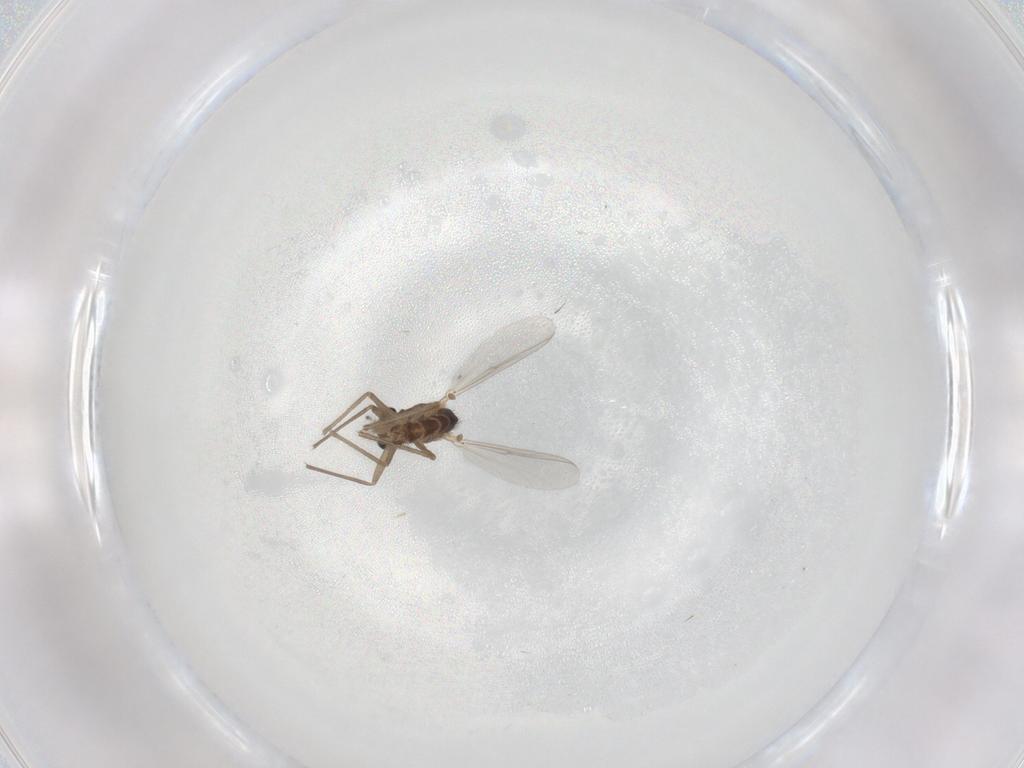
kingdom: Animalia
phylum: Arthropoda
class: Insecta
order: Diptera
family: Chironomidae
